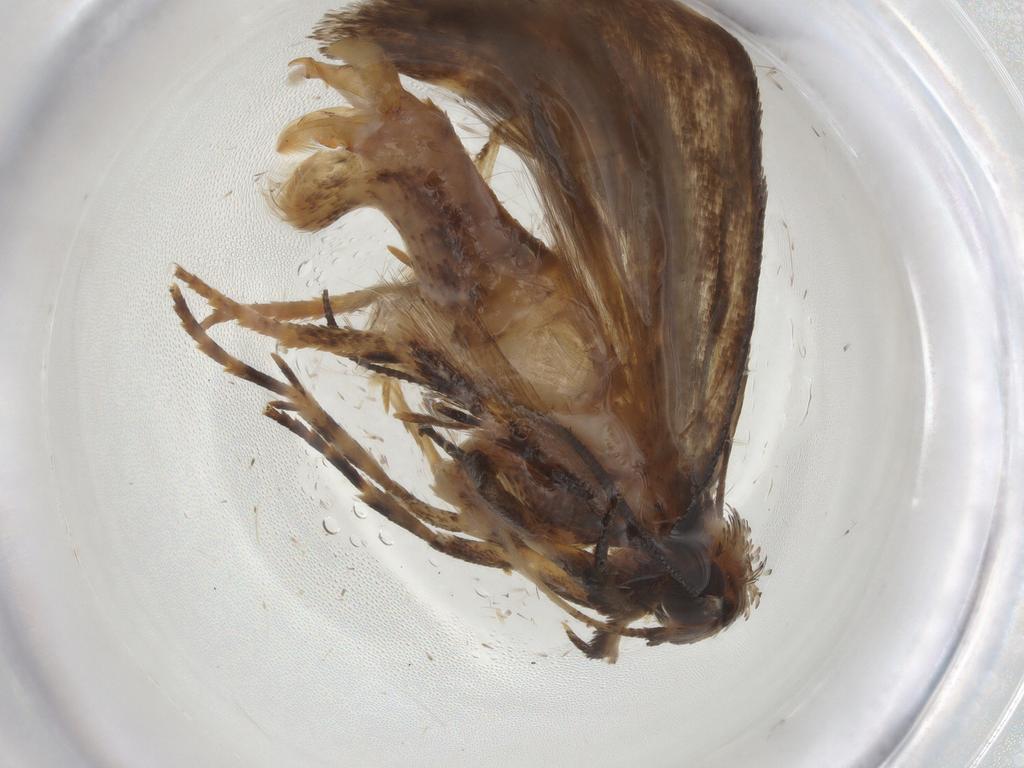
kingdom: Animalia
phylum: Arthropoda
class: Insecta
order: Lepidoptera
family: Gelechiidae
